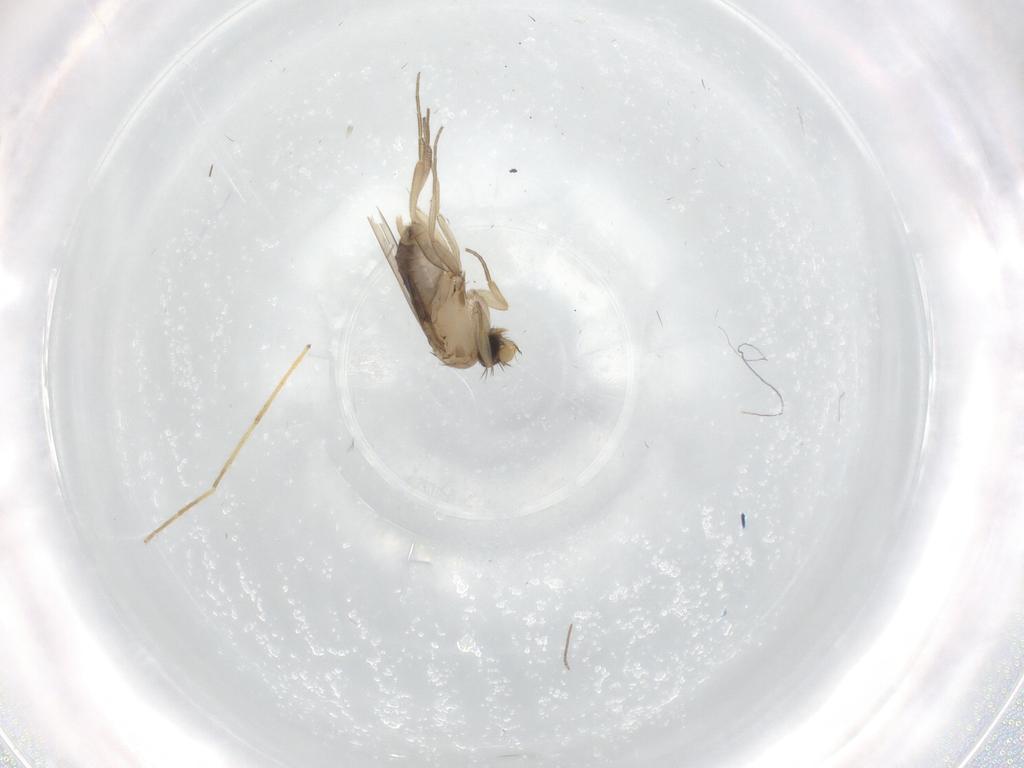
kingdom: Animalia
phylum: Arthropoda
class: Insecta
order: Diptera
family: Phoridae
